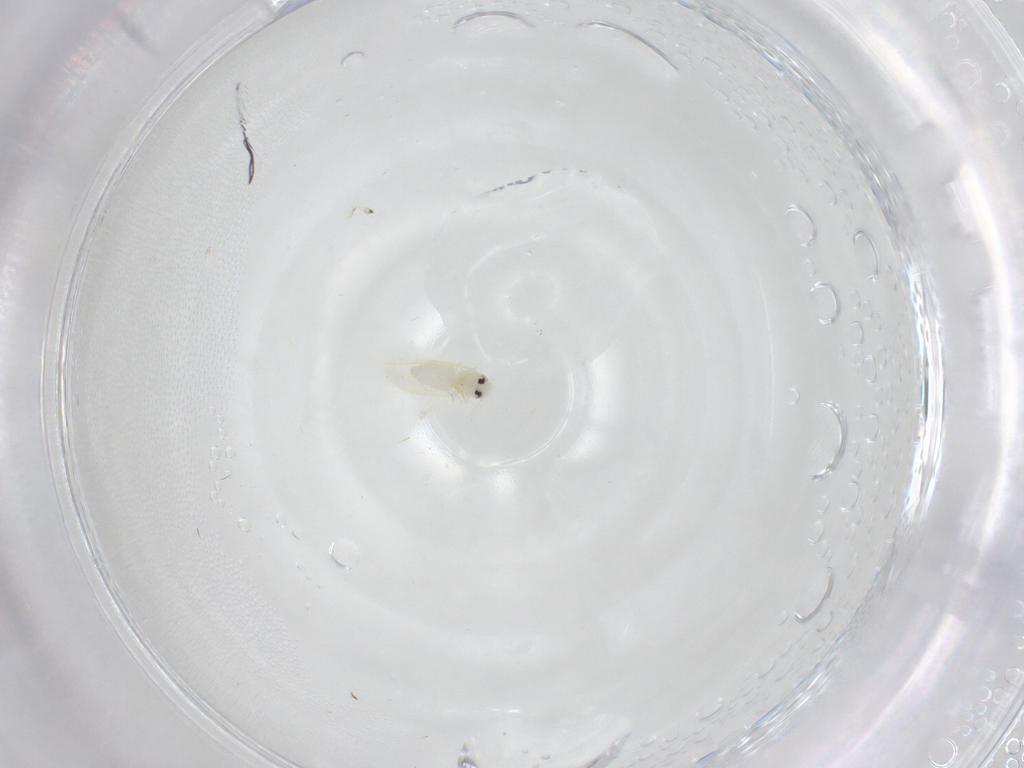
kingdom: Animalia
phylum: Arthropoda
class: Insecta
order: Hemiptera
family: Aleyrodidae
